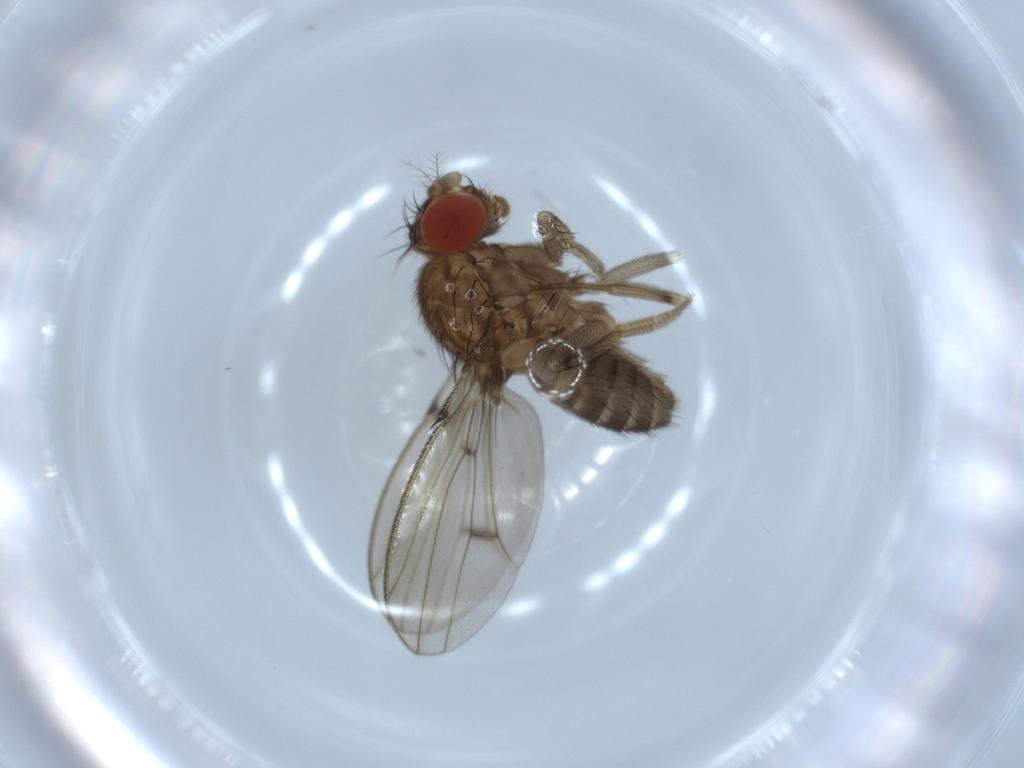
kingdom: Animalia
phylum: Arthropoda
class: Insecta
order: Diptera
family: Drosophilidae
